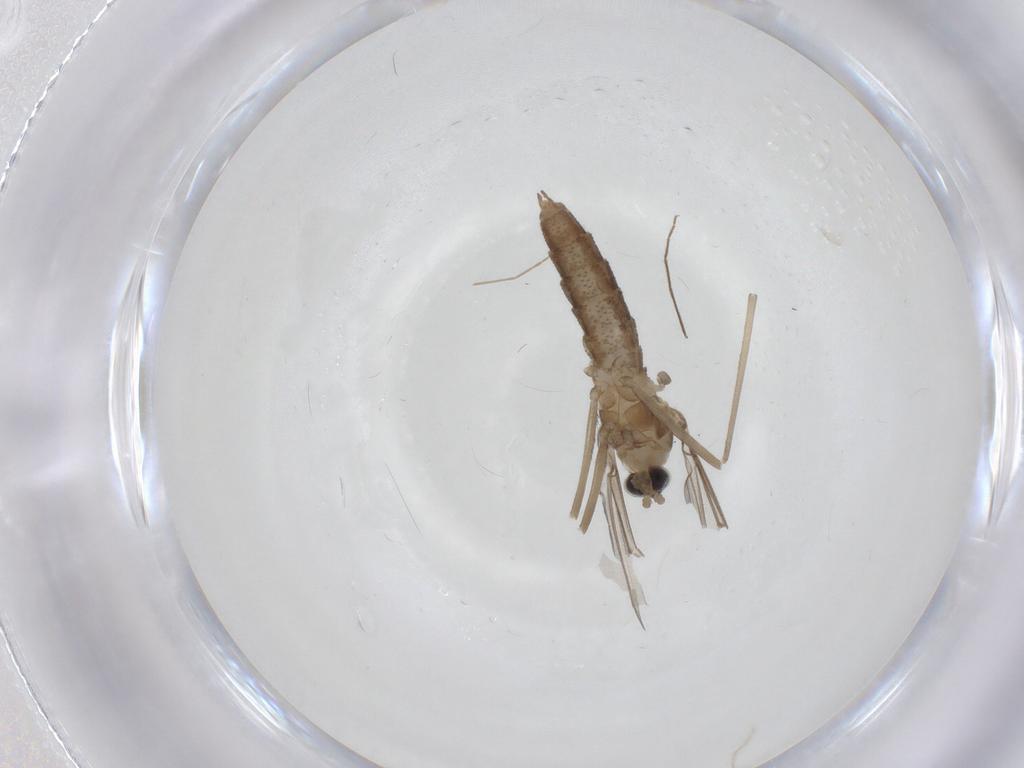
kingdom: Animalia
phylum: Arthropoda
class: Insecta
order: Diptera
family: Cecidomyiidae
